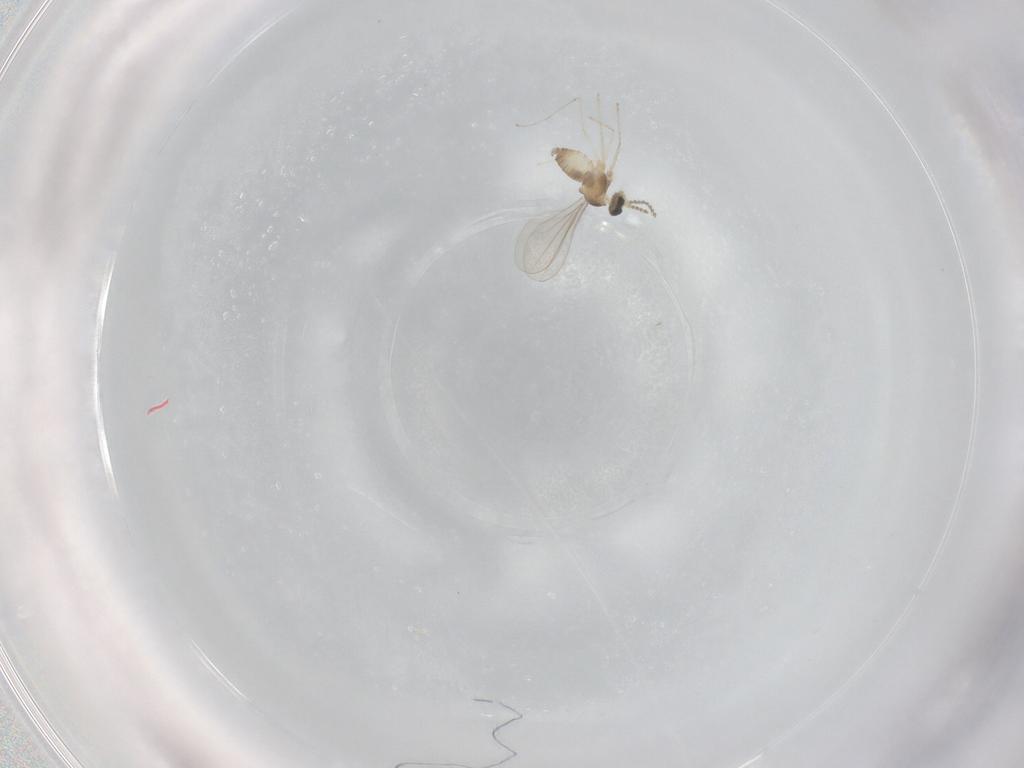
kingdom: Animalia
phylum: Arthropoda
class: Insecta
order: Diptera
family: Cecidomyiidae
